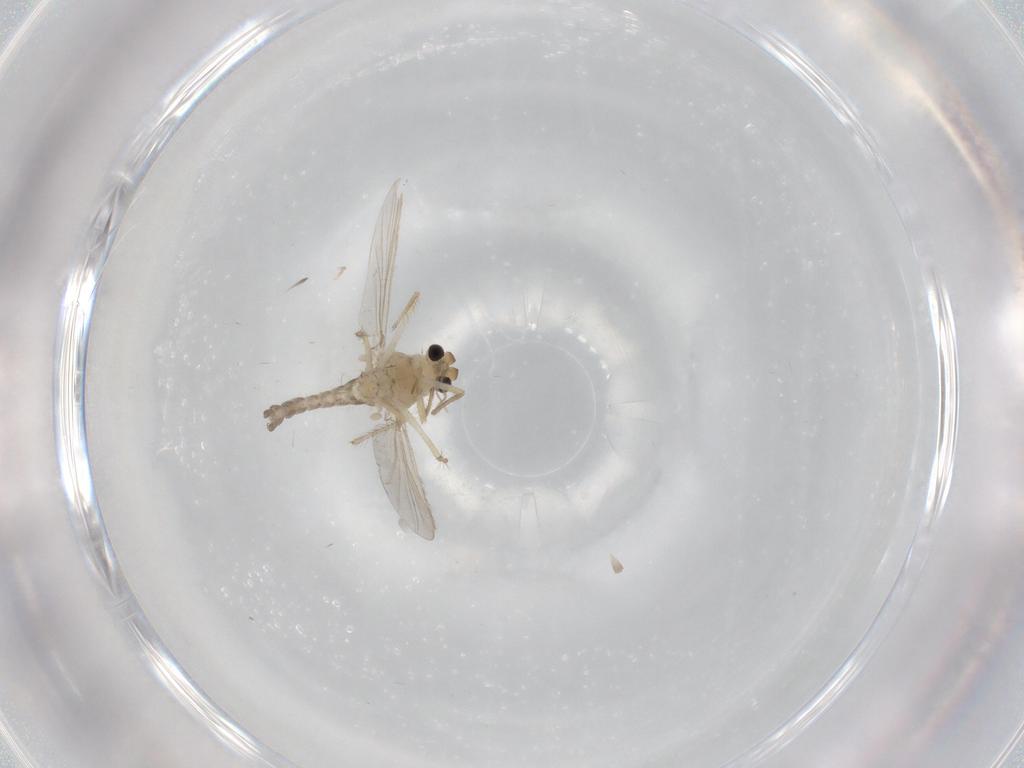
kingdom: Animalia
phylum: Arthropoda
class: Insecta
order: Diptera
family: Chironomidae
